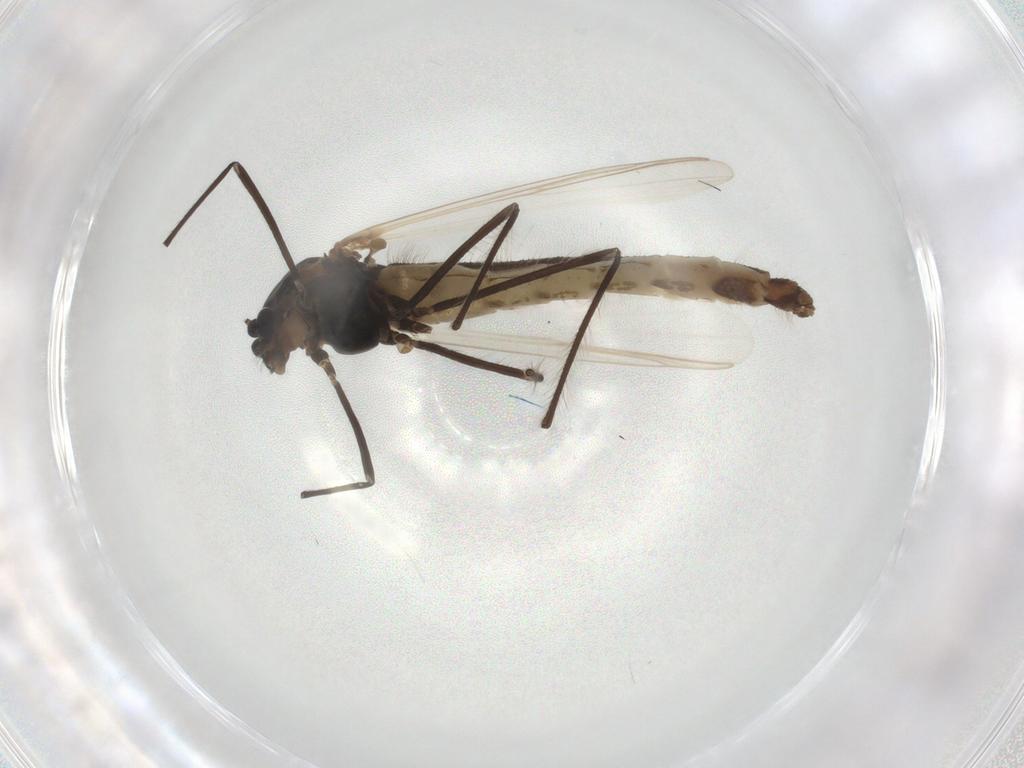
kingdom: Animalia
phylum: Arthropoda
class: Insecta
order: Diptera
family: Chironomidae
